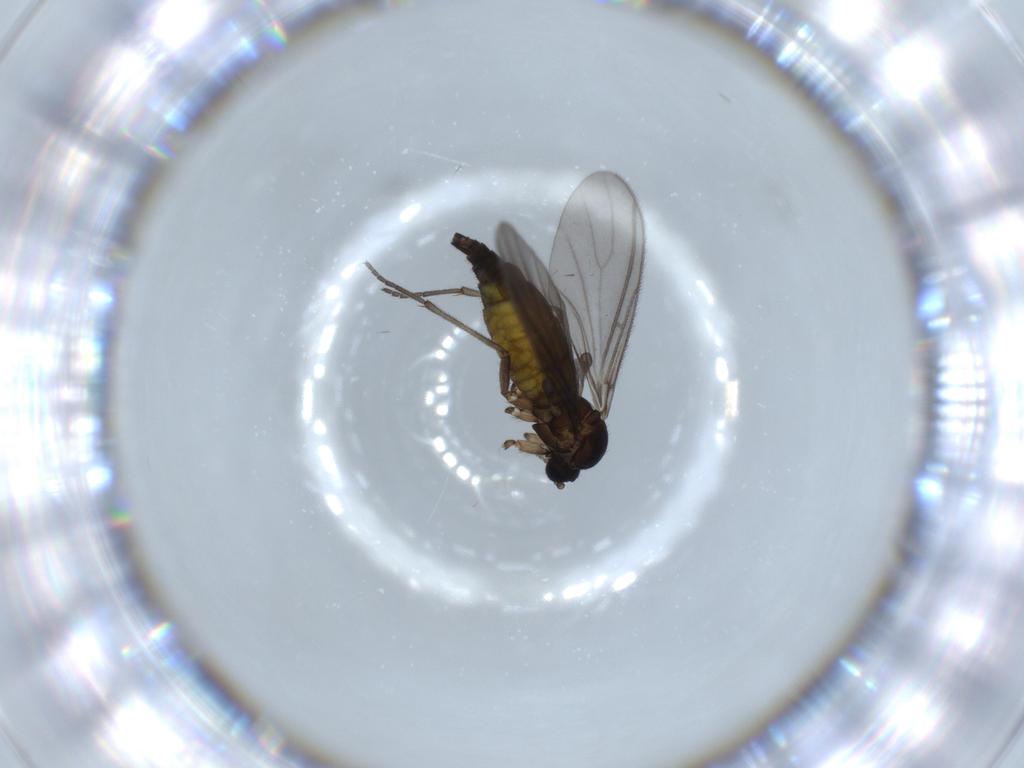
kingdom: Animalia
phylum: Arthropoda
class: Insecta
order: Diptera
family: Sciaridae
